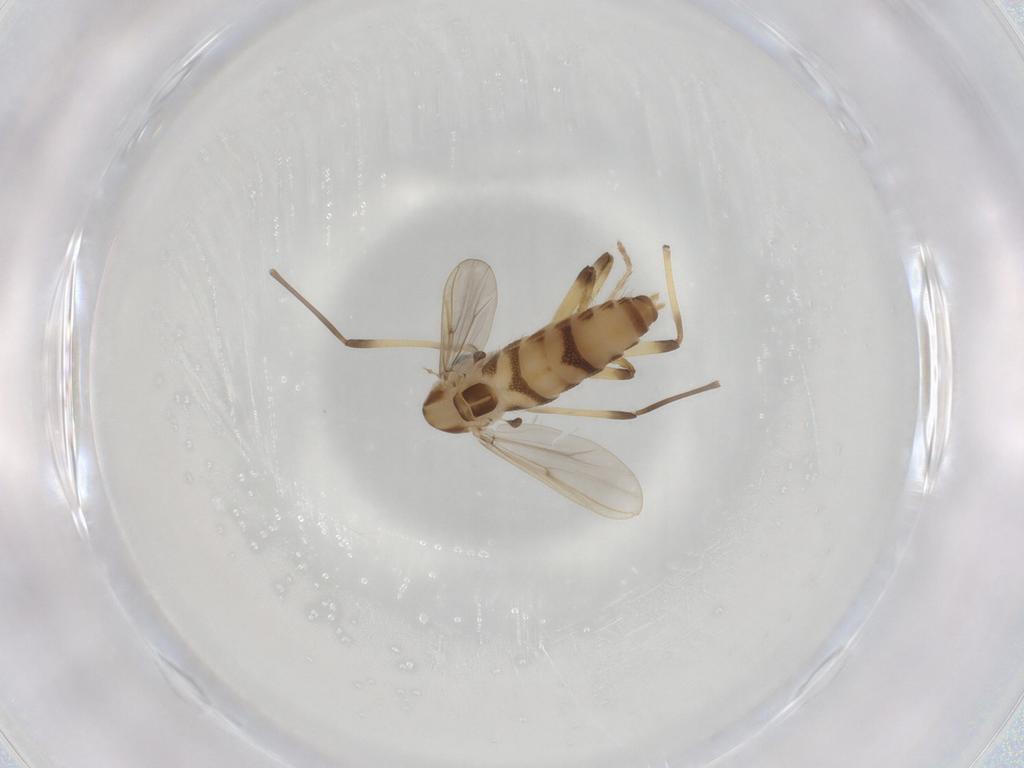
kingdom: Animalia
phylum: Arthropoda
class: Insecta
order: Diptera
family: Chironomidae
